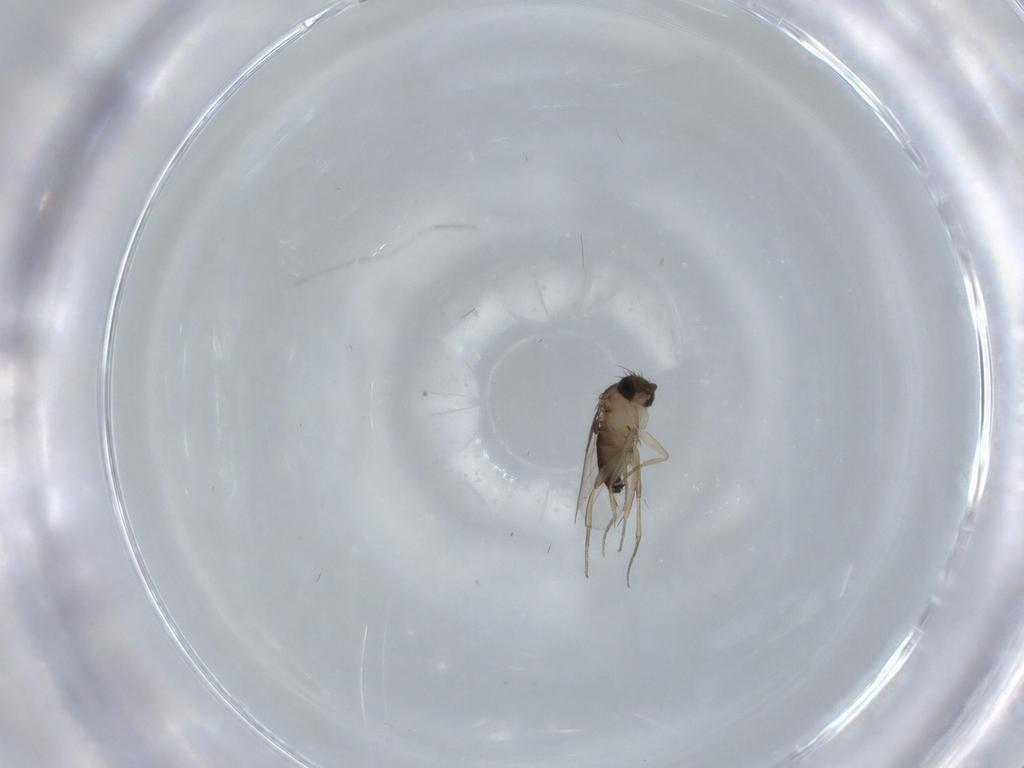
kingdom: Animalia
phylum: Arthropoda
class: Insecta
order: Diptera
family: Phoridae
